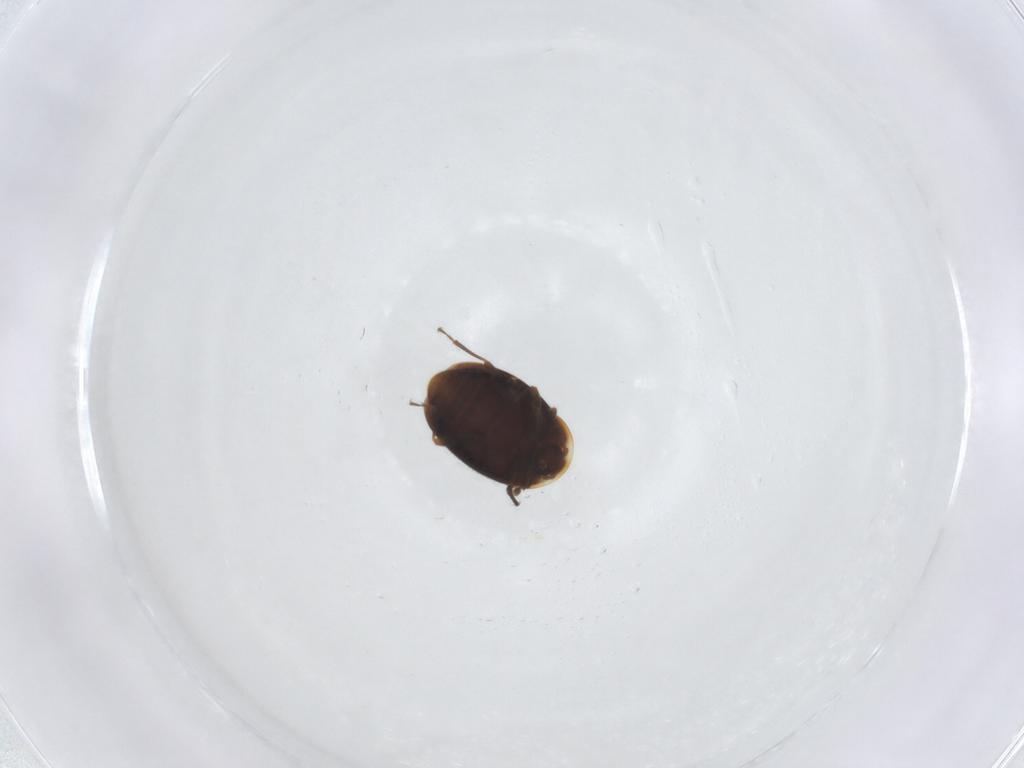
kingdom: Animalia
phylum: Arthropoda
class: Insecta
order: Coleoptera
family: Corylophidae
